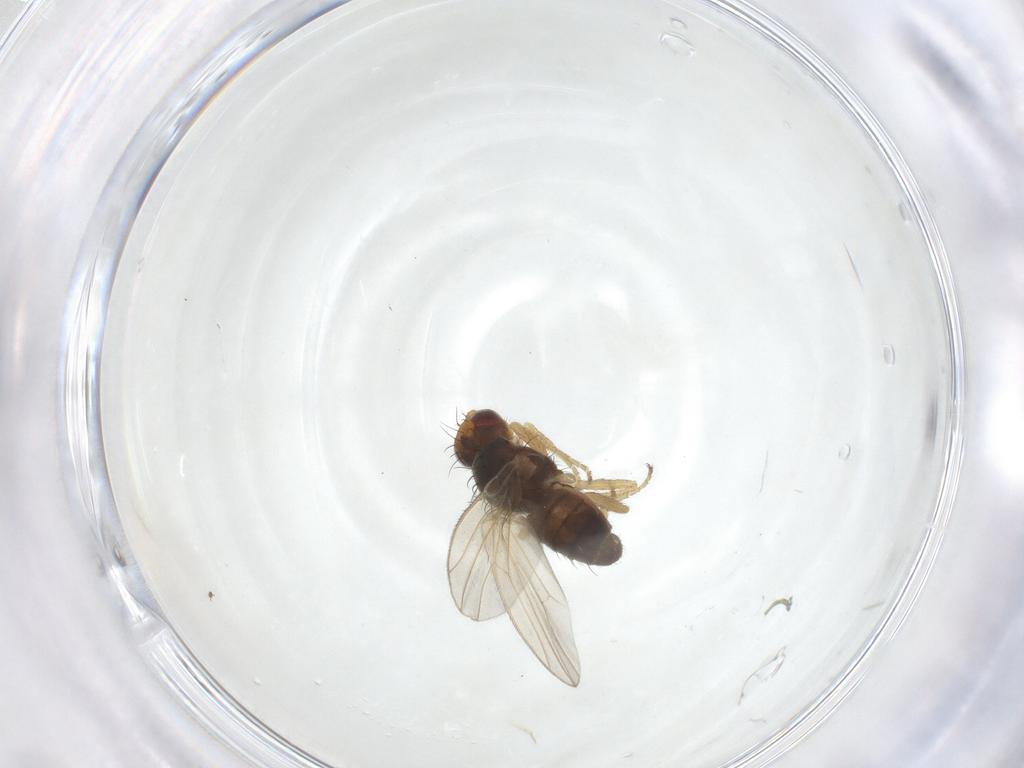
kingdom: Animalia
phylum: Arthropoda
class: Insecta
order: Diptera
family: Heleomyzidae
